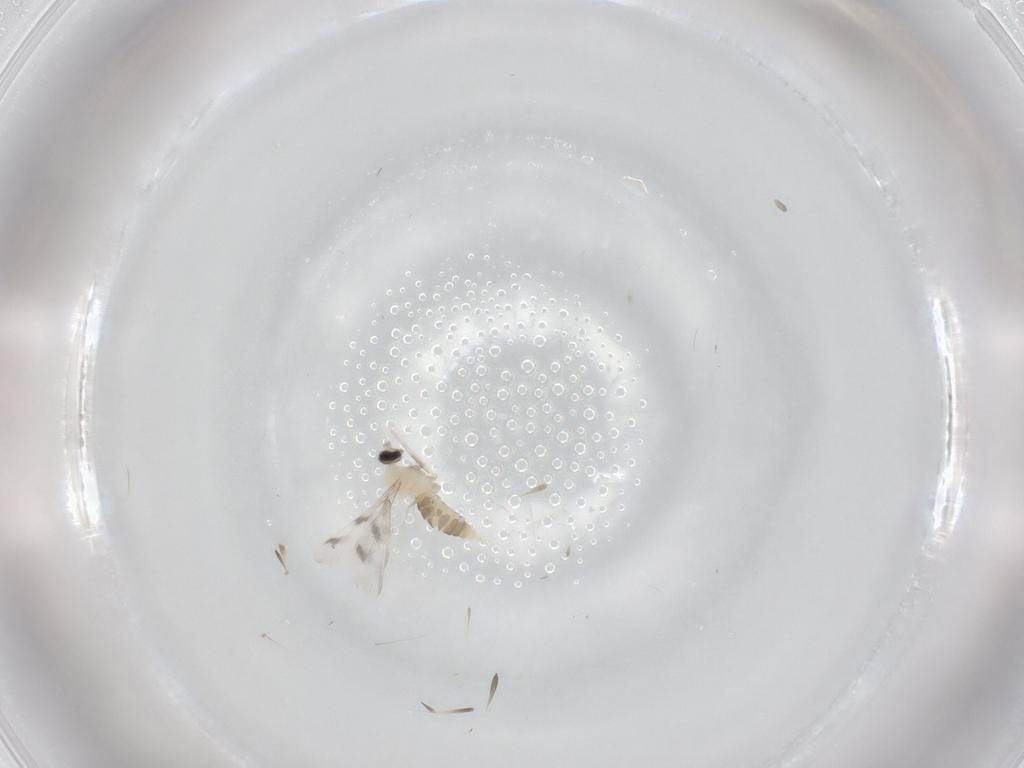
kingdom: Animalia
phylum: Arthropoda
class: Insecta
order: Diptera
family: Cecidomyiidae
